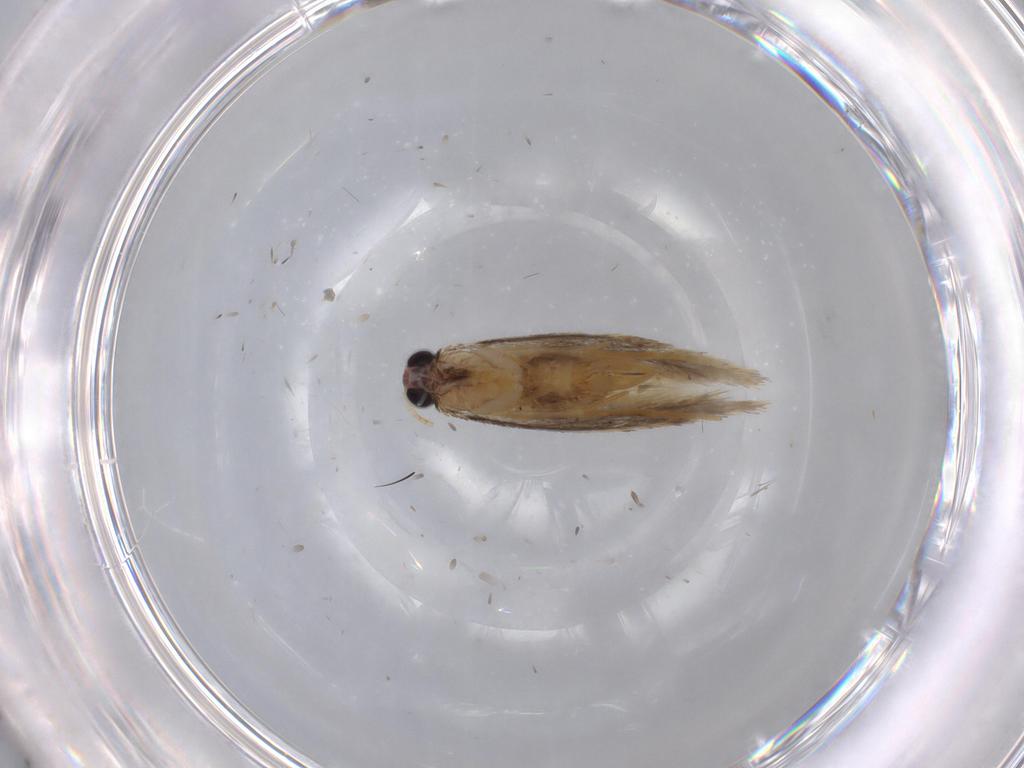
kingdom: Animalia
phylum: Arthropoda
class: Insecta
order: Lepidoptera
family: Nepticulidae
